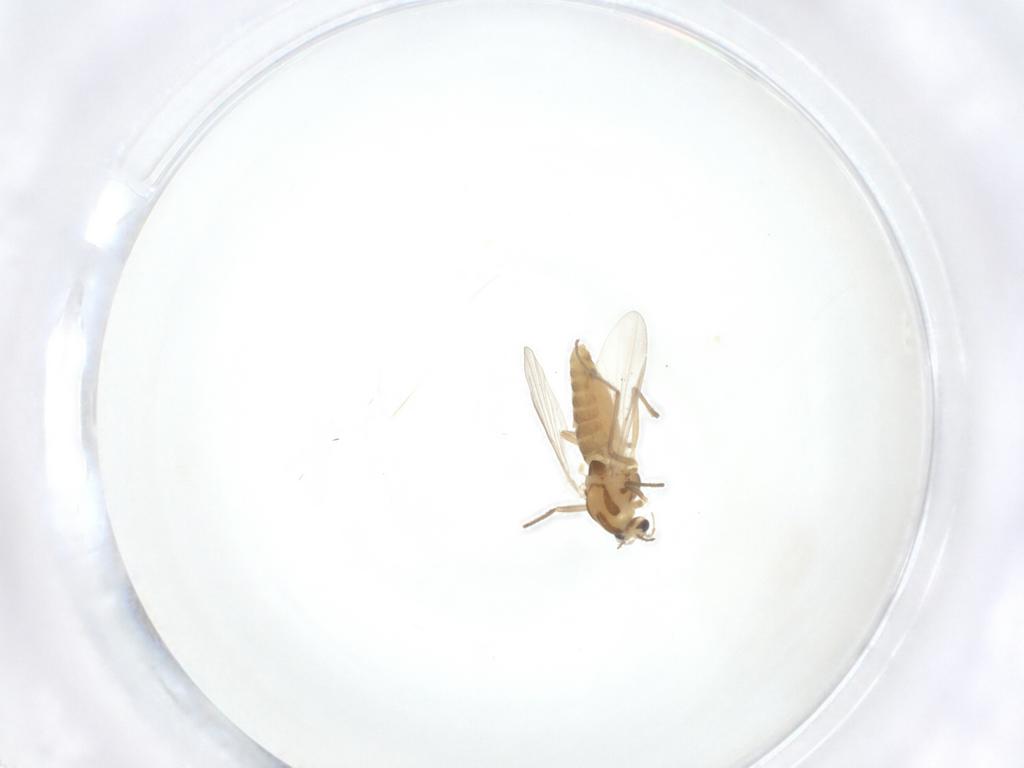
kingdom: Animalia
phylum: Arthropoda
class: Insecta
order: Diptera
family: Chironomidae
